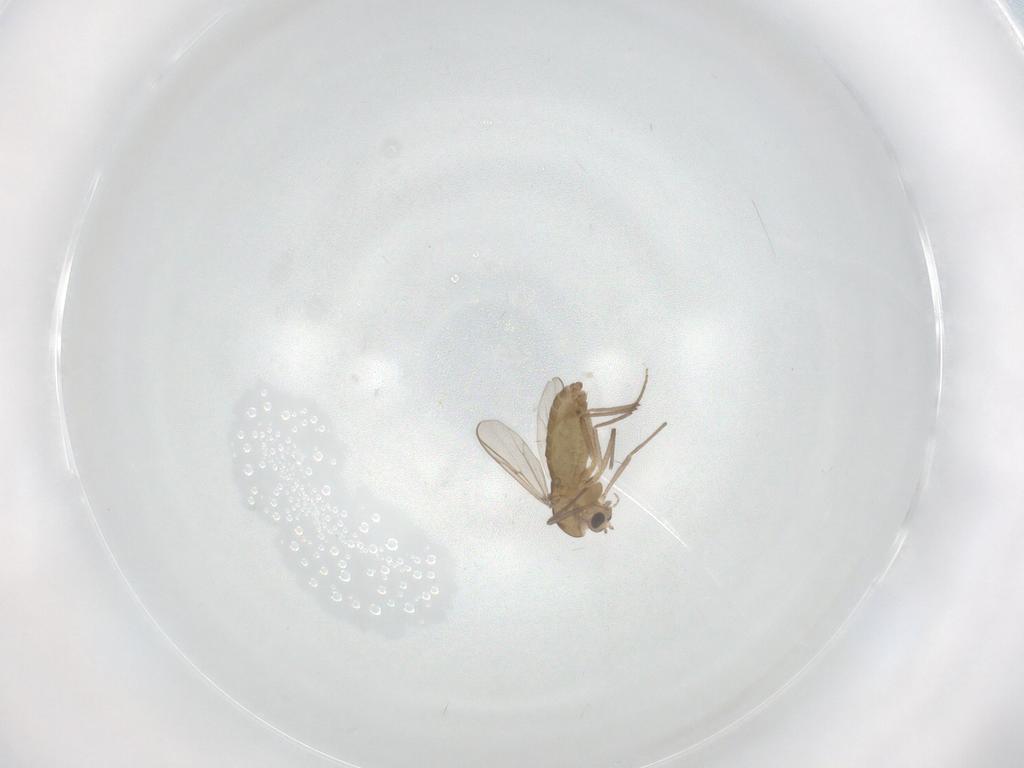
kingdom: Animalia
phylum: Arthropoda
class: Insecta
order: Diptera
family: Chironomidae
